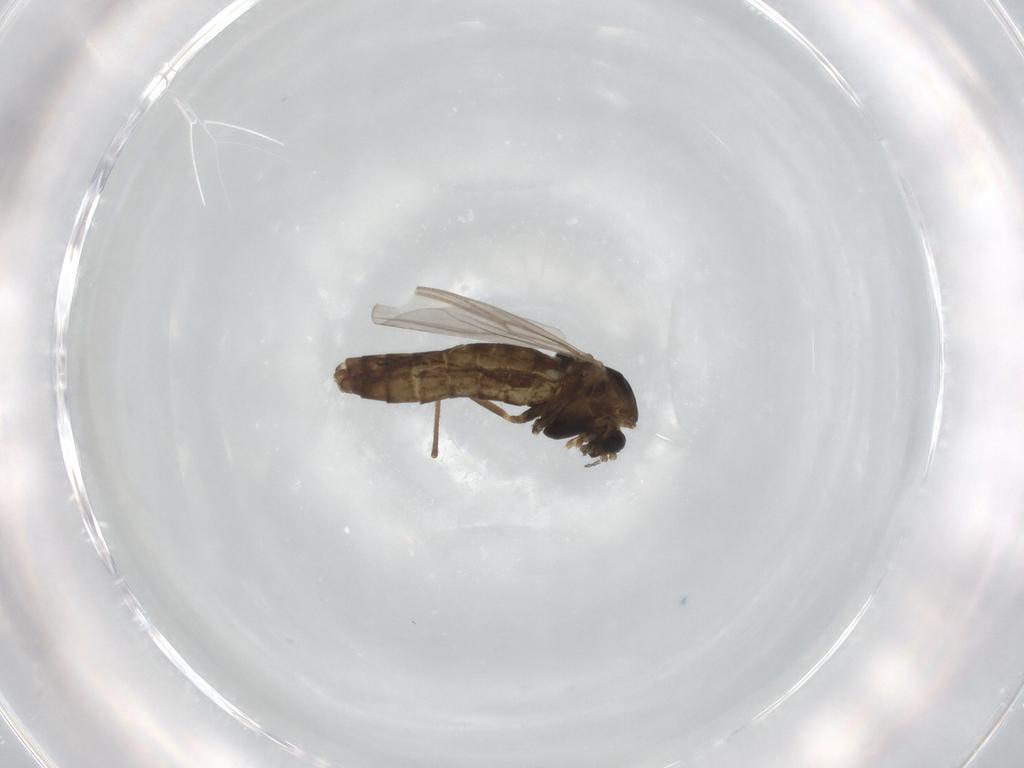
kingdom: Animalia
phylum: Arthropoda
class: Insecta
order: Diptera
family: Chironomidae
